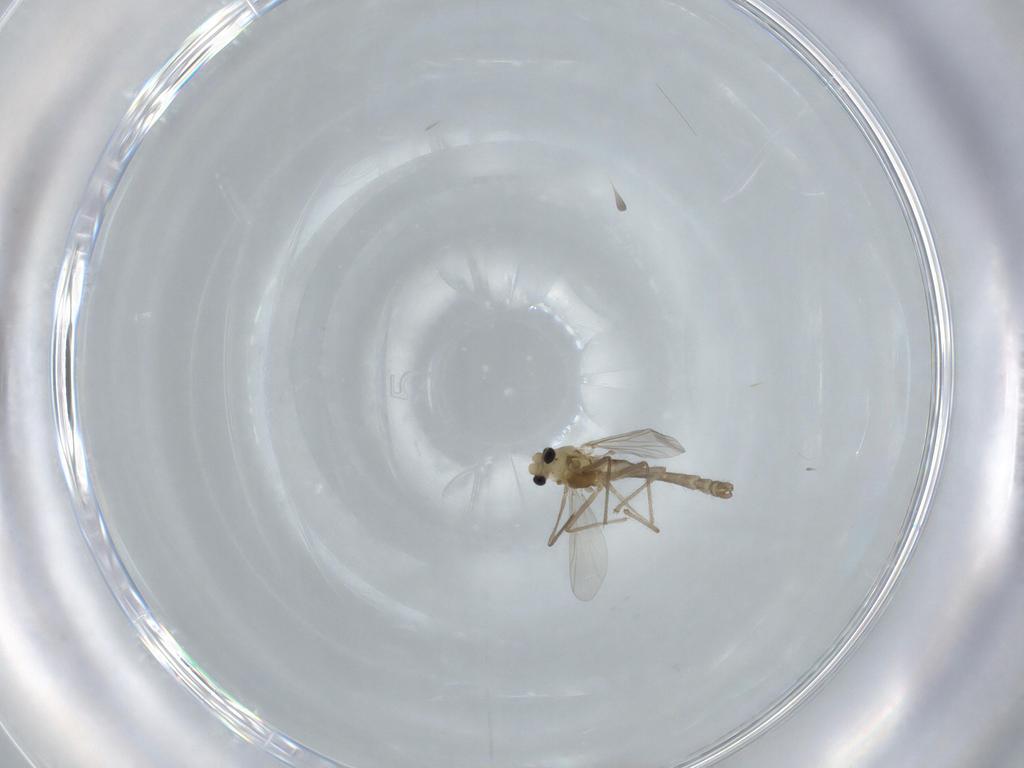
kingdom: Animalia
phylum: Arthropoda
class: Insecta
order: Diptera
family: Chironomidae
